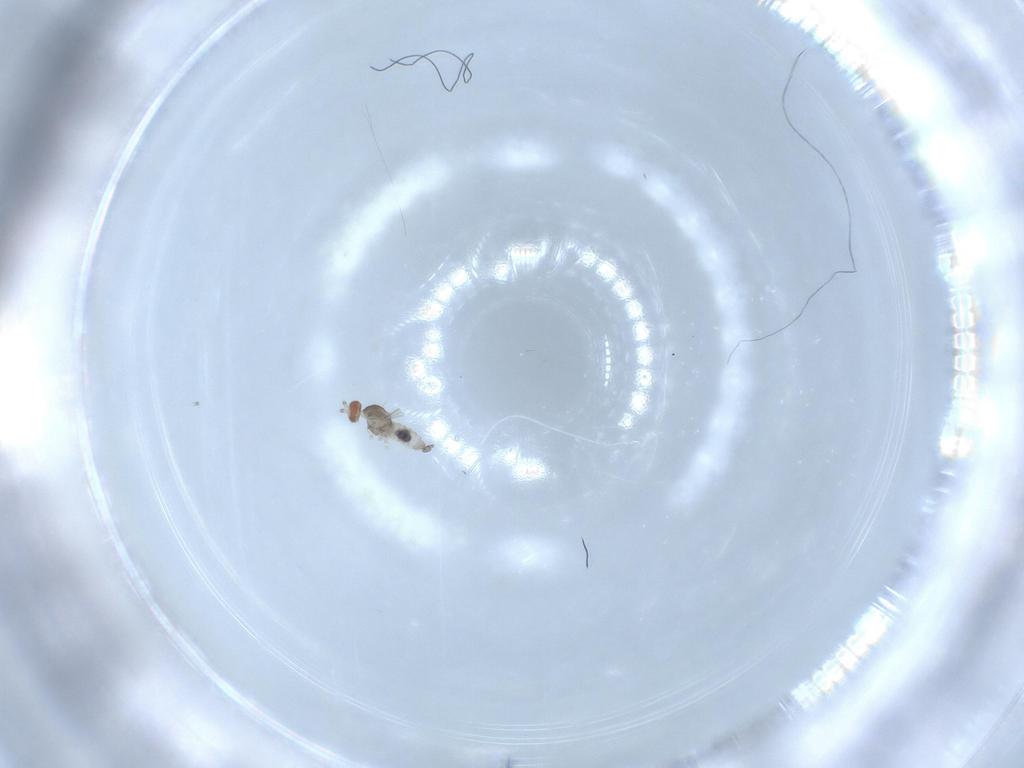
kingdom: Animalia
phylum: Arthropoda
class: Insecta
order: Diptera
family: Cecidomyiidae
